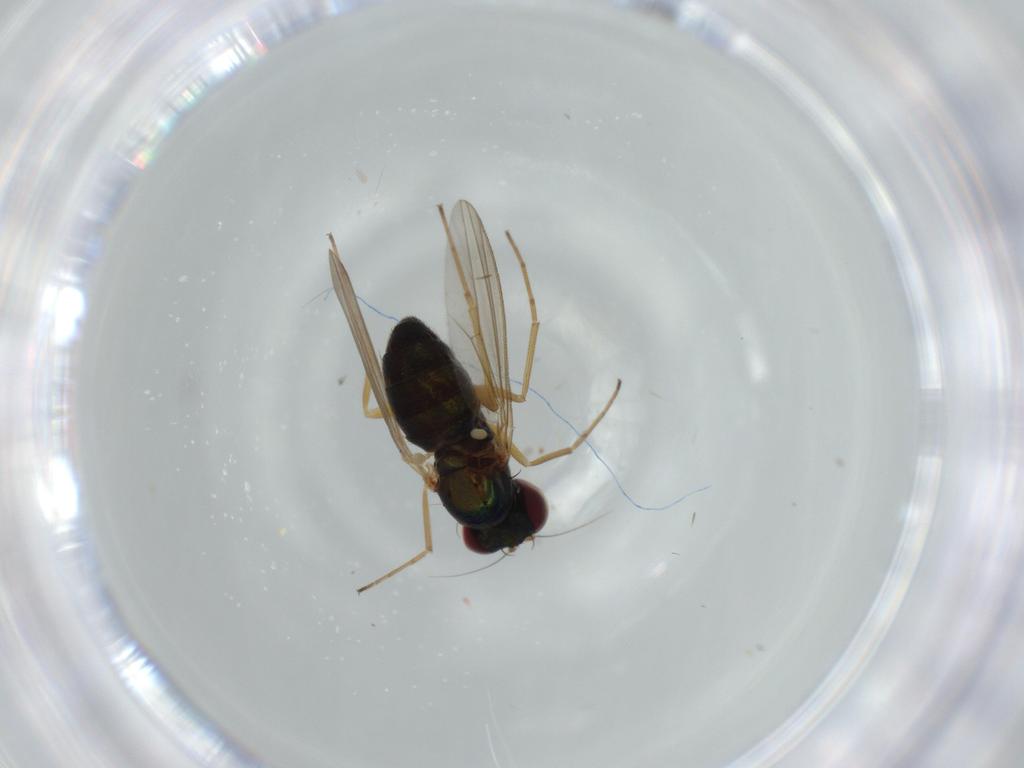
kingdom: Animalia
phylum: Arthropoda
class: Insecta
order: Diptera
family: Dolichopodidae
